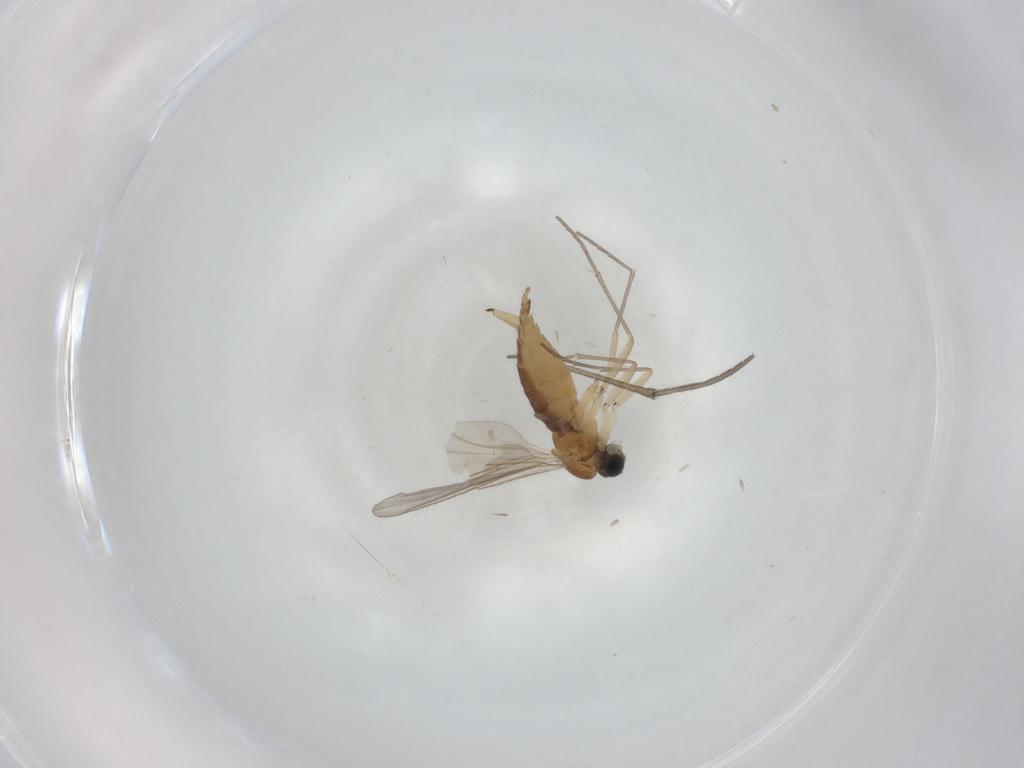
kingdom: Animalia
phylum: Arthropoda
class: Insecta
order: Diptera
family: Sciaridae
